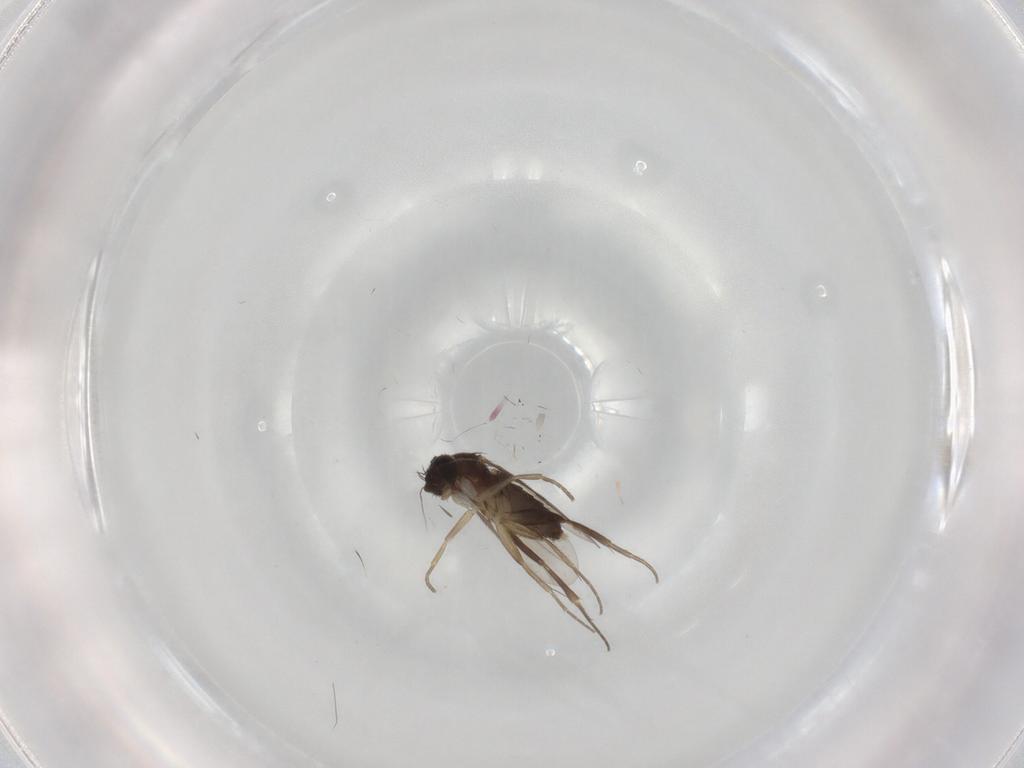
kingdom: Animalia
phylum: Arthropoda
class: Insecta
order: Diptera
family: Phoridae
